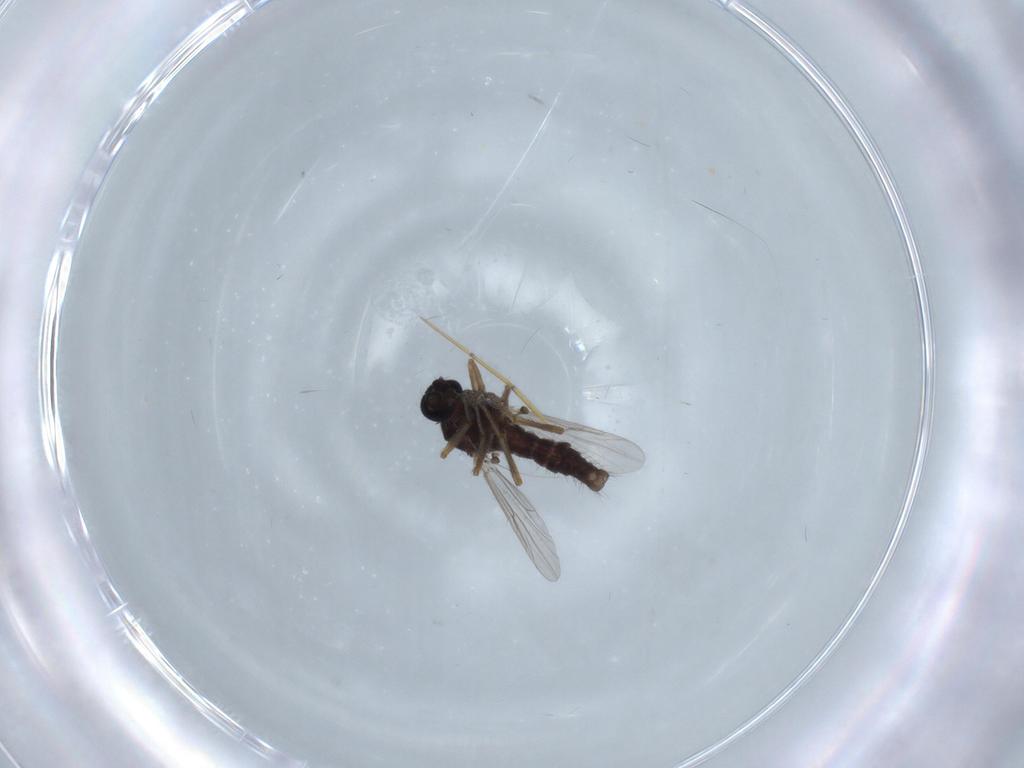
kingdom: Animalia
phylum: Arthropoda
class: Insecta
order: Diptera
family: Ceratopogonidae
